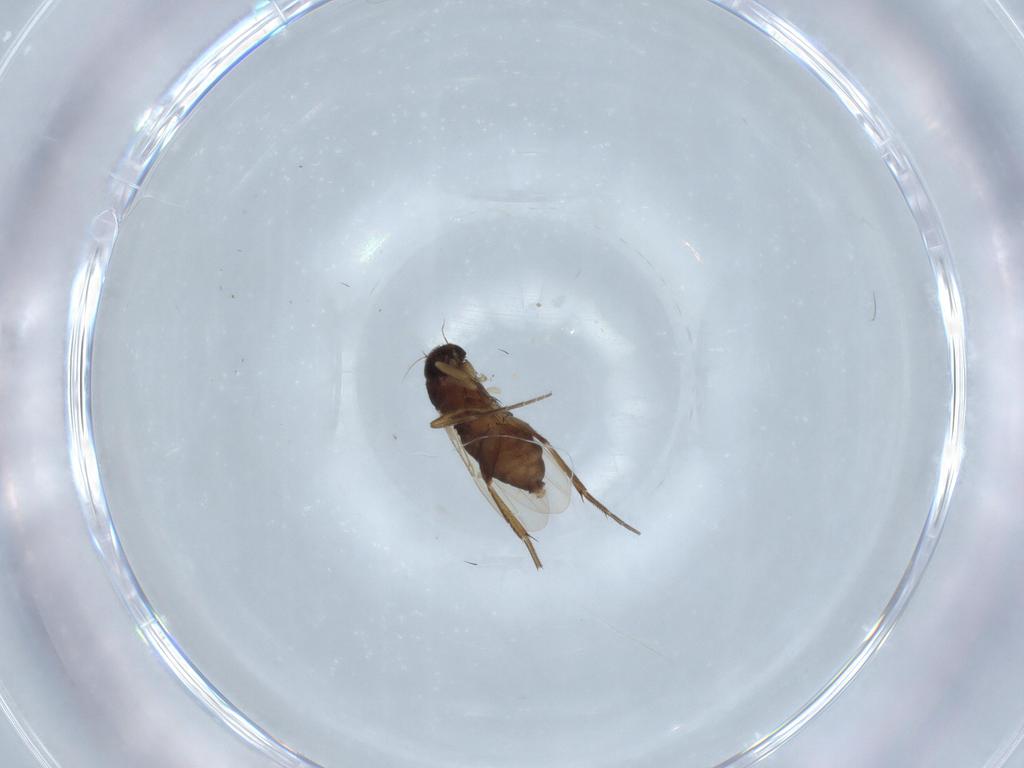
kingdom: Animalia
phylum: Arthropoda
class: Insecta
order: Diptera
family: Phoridae
